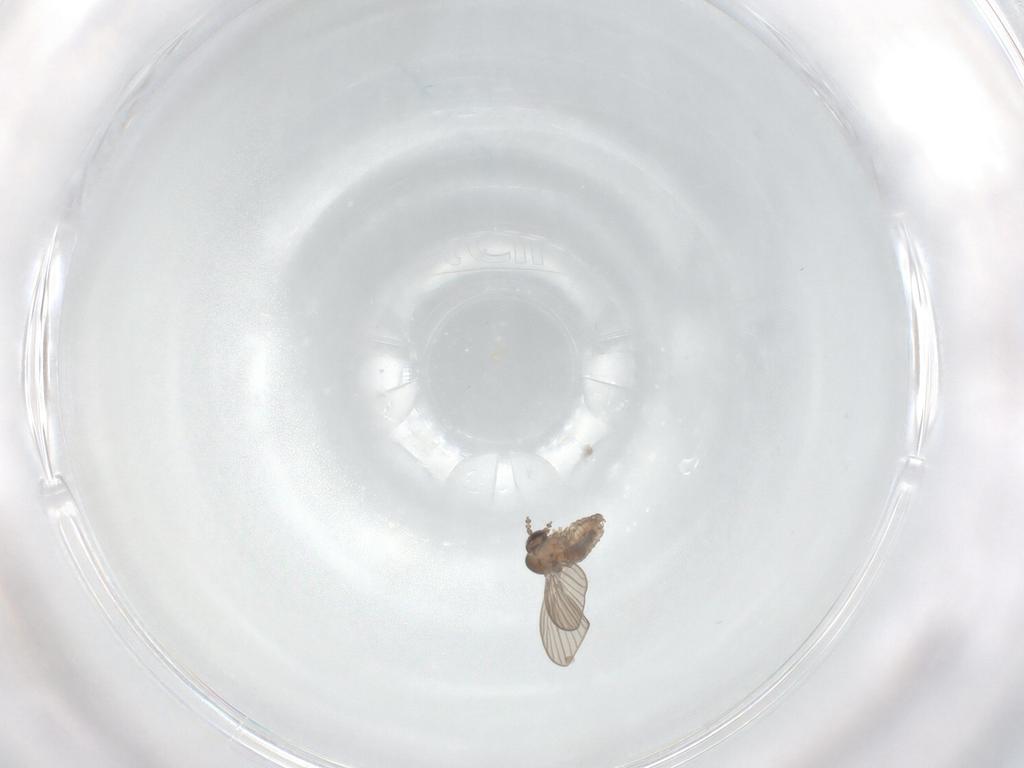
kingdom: Animalia
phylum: Arthropoda
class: Insecta
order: Diptera
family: Psychodidae
